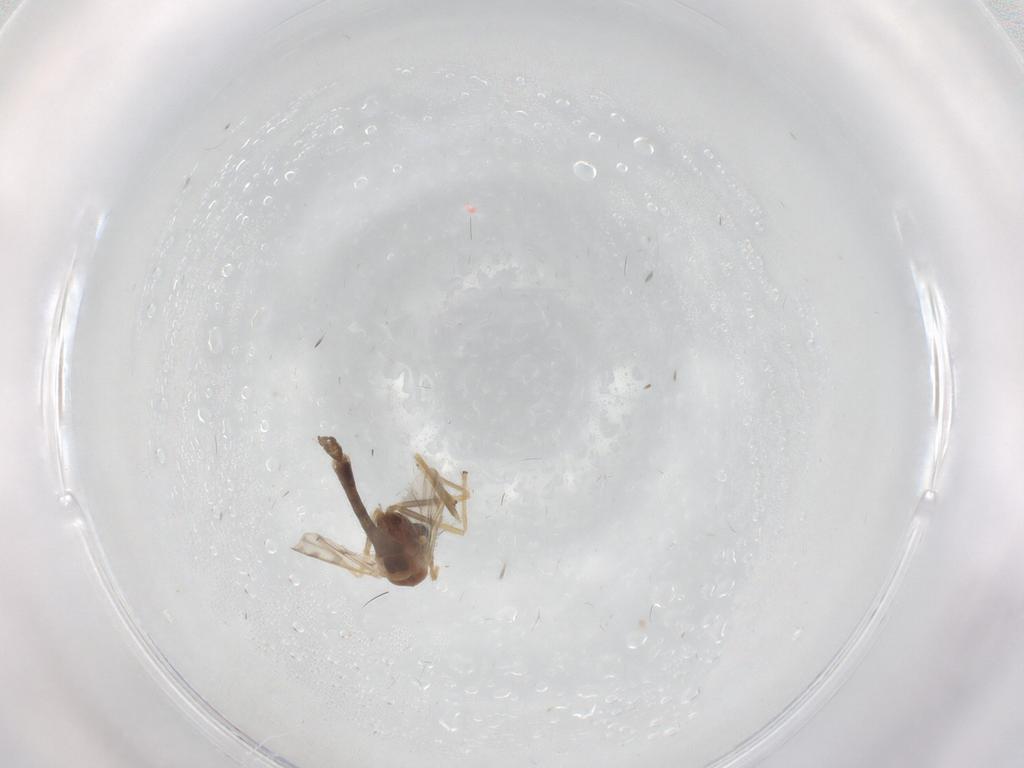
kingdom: Animalia
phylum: Arthropoda
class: Insecta
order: Diptera
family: Chironomidae
